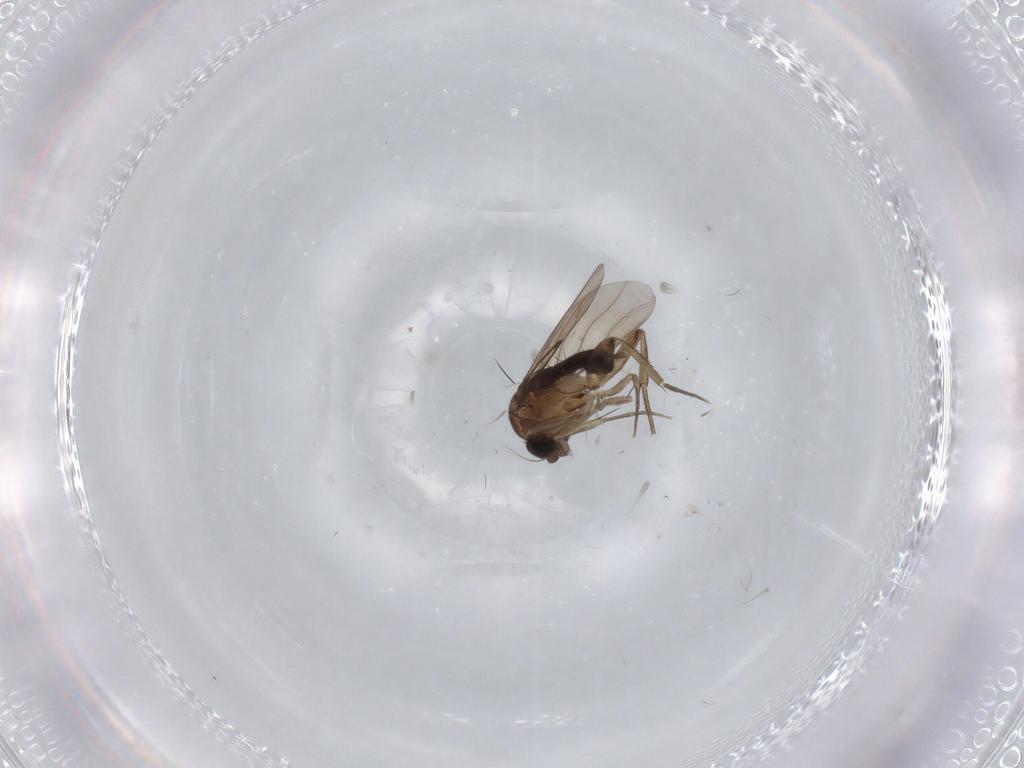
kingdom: Animalia
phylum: Arthropoda
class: Insecta
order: Diptera
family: Phoridae
